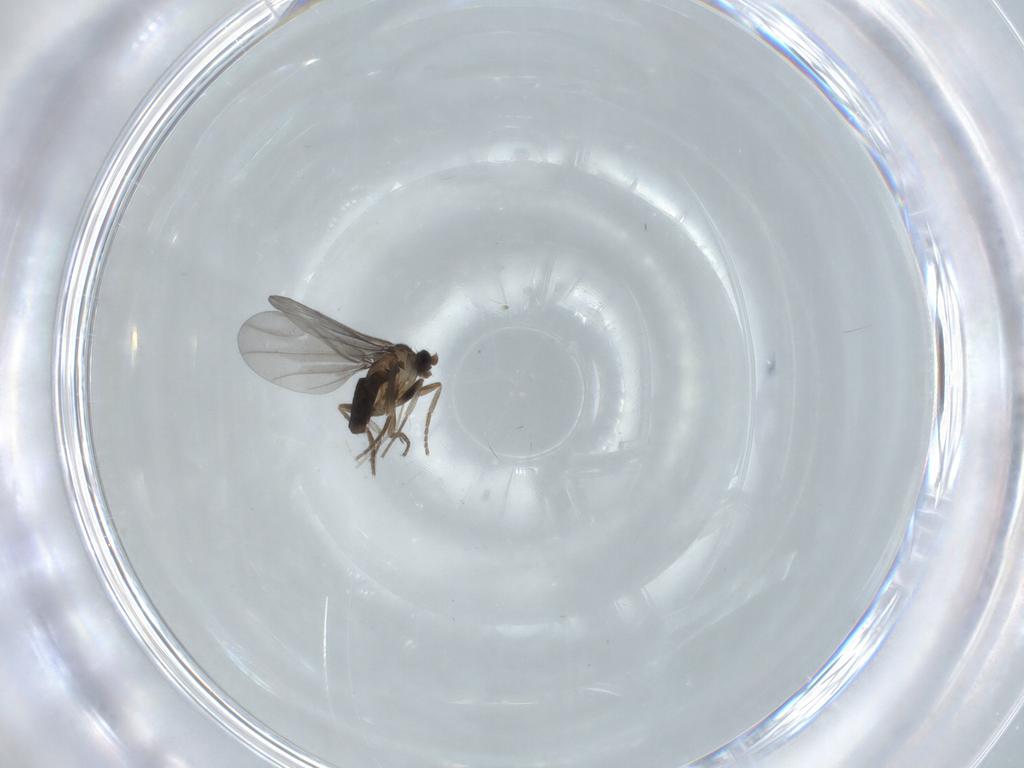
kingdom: Animalia
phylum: Arthropoda
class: Insecta
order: Diptera
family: Phoridae
